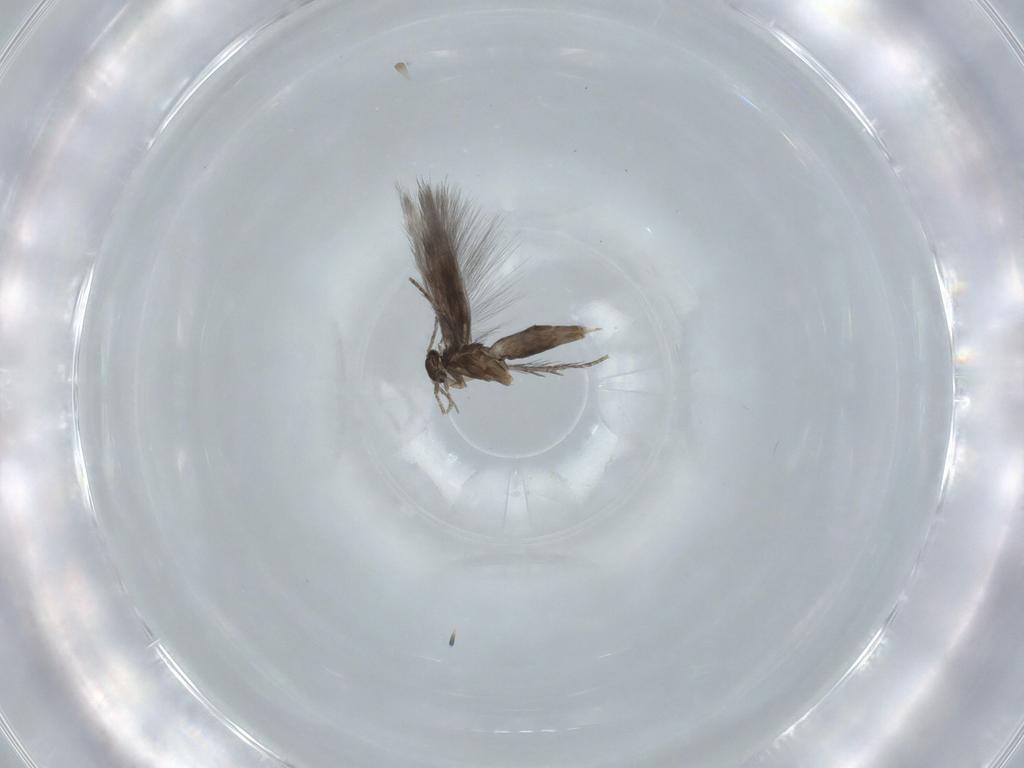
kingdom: Animalia
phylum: Arthropoda
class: Insecta
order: Trichoptera
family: Hydroptilidae
